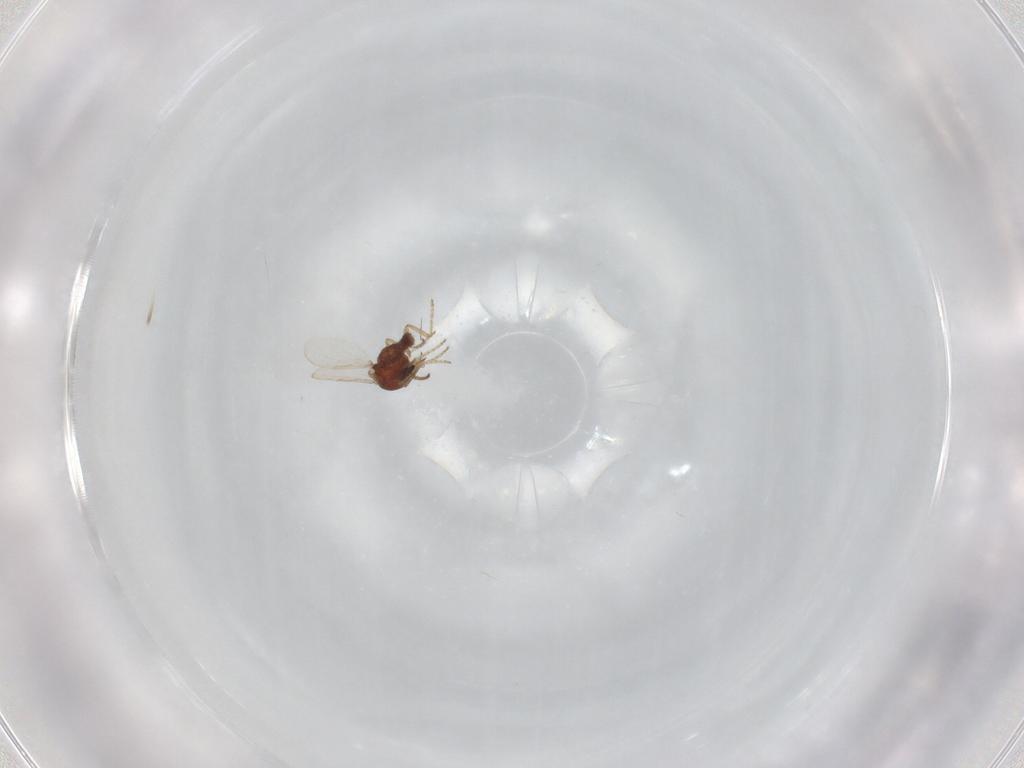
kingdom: Animalia
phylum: Arthropoda
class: Insecta
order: Diptera
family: Ceratopogonidae
